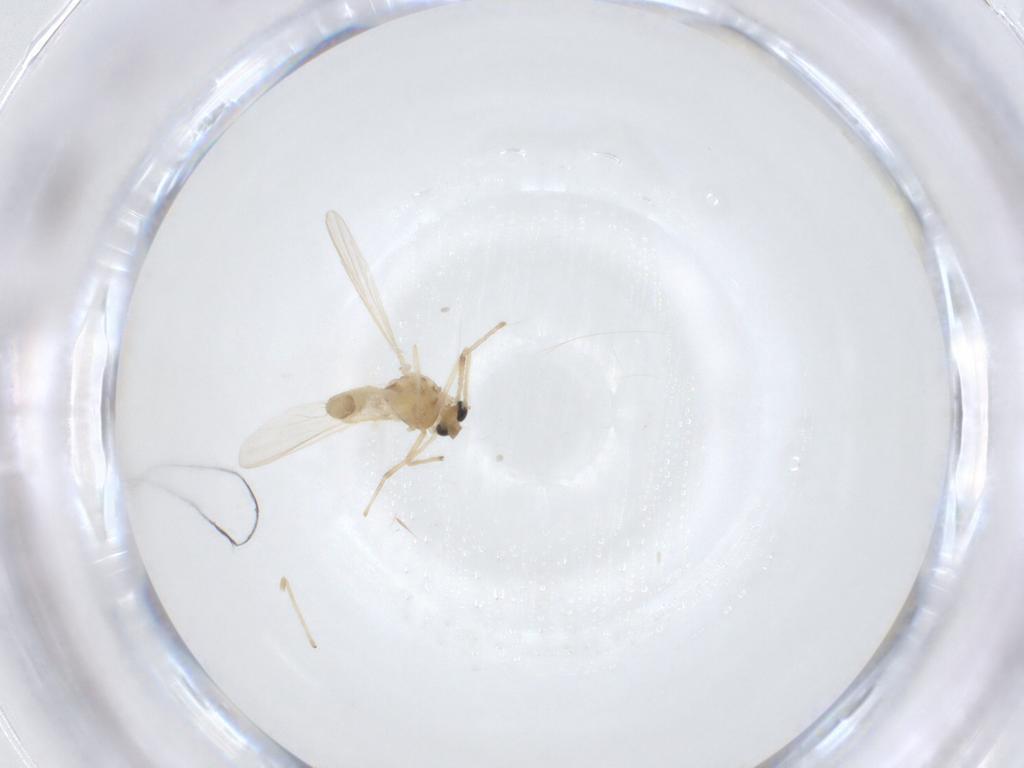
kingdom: Animalia
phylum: Arthropoda
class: Insecta
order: Diptera
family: Chironomidae
